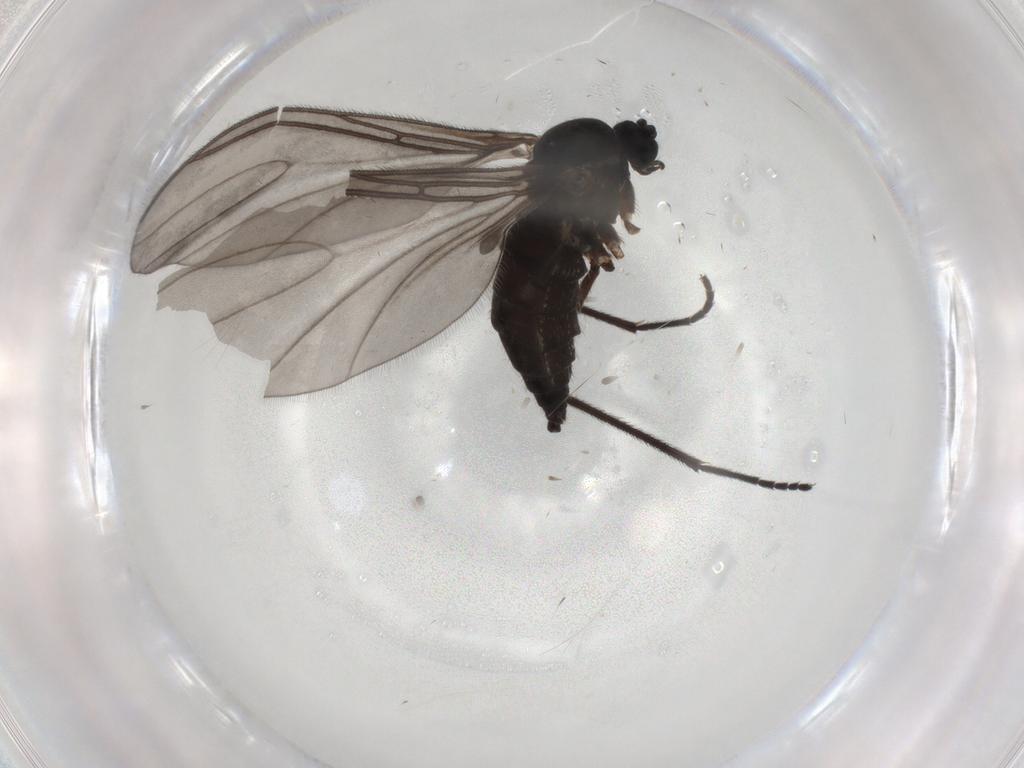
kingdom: Animalia
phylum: Arthropoda
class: Insecta
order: Diptera
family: Sciaridae
